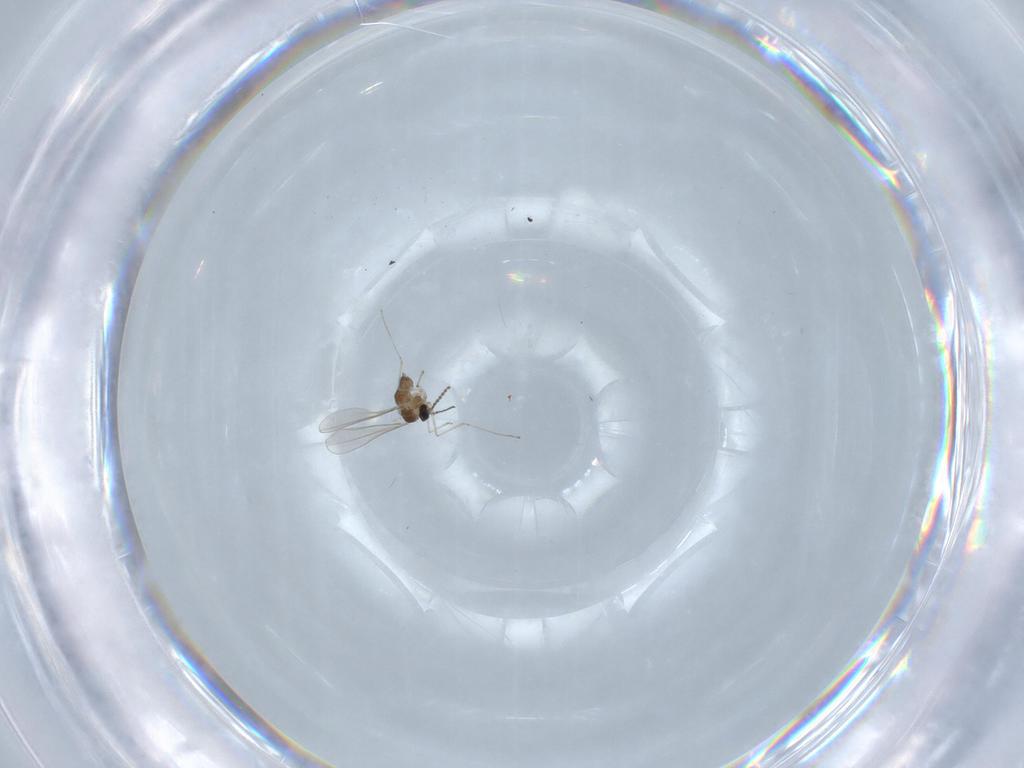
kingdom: Animalia
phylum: Arthropoda
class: Insecta
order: Diptera
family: Cecidomyiidae
